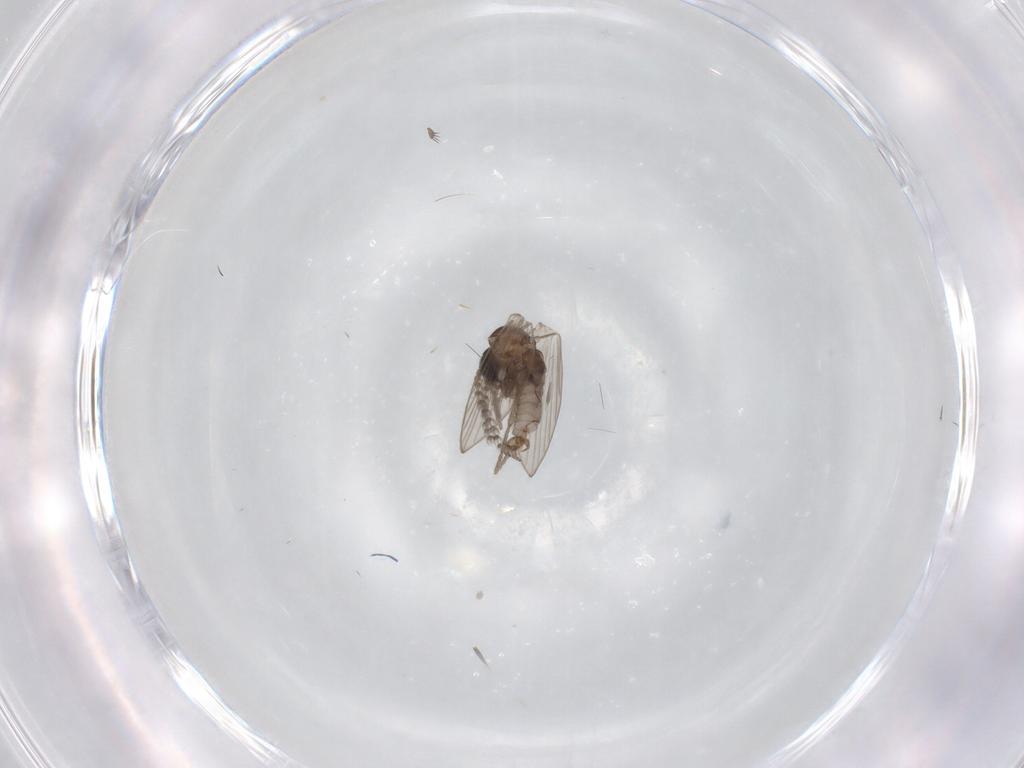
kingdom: Animalia
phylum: Arthropoda
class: Insecta
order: Diptera
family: Psychodidae
